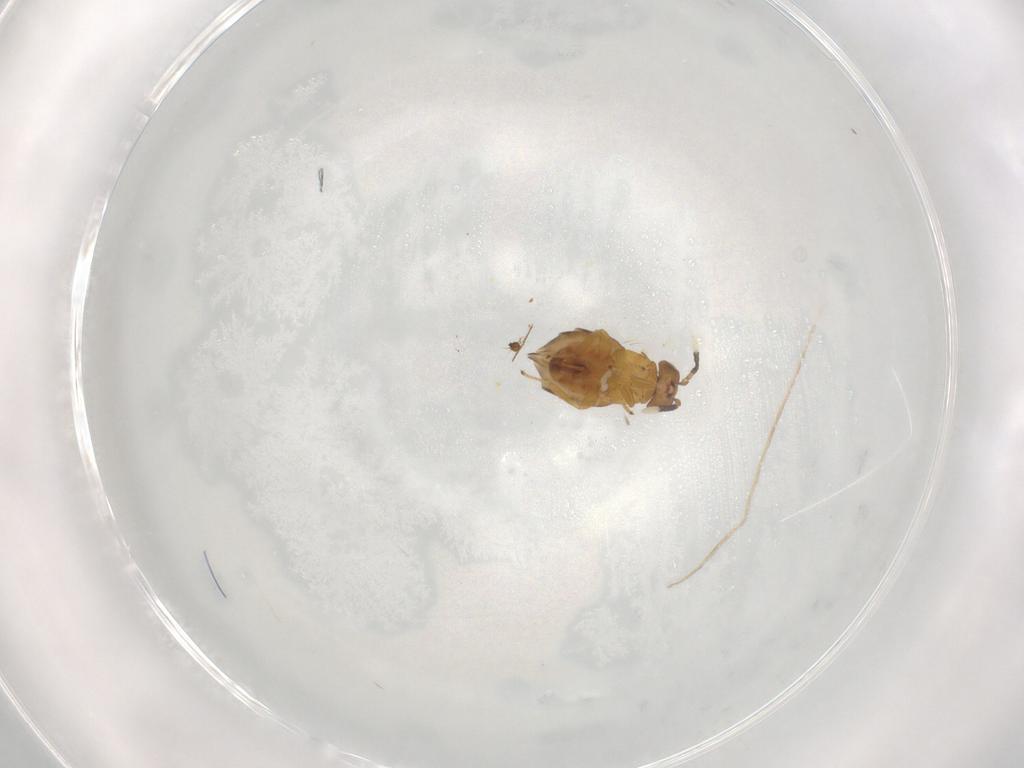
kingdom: Animalia
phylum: Arthropoda
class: Insecta
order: Hymenoptera
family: Braconidae
